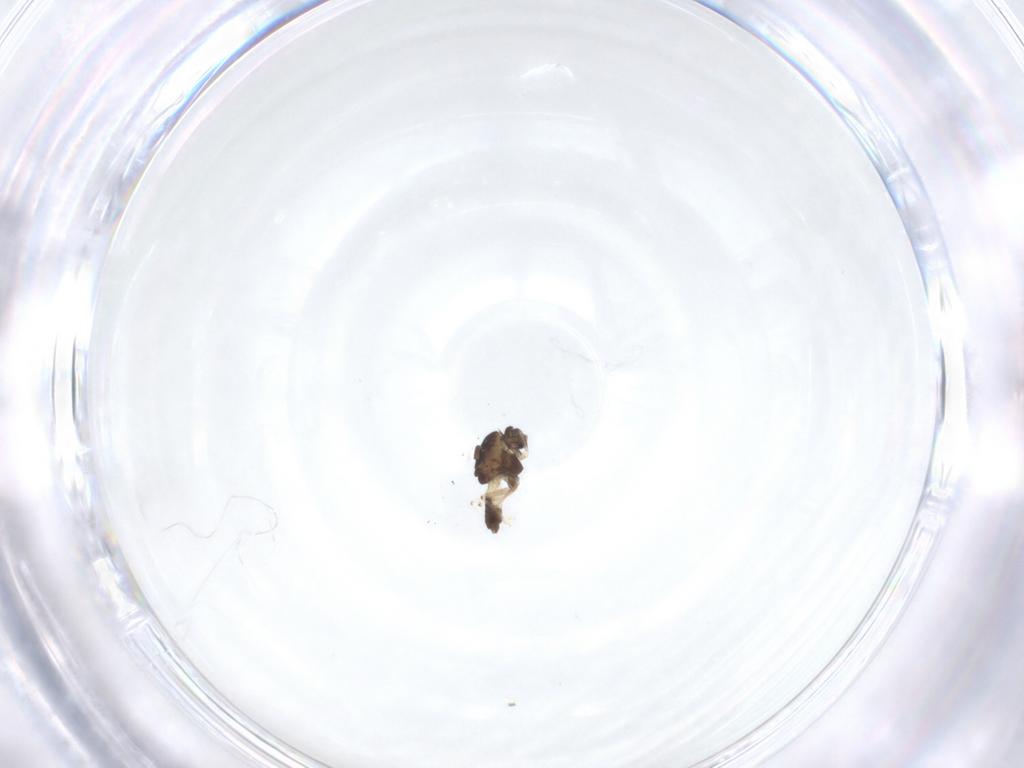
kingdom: Animalia
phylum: Arthropoda
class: Insecta
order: Diptera
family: Chironomidae
